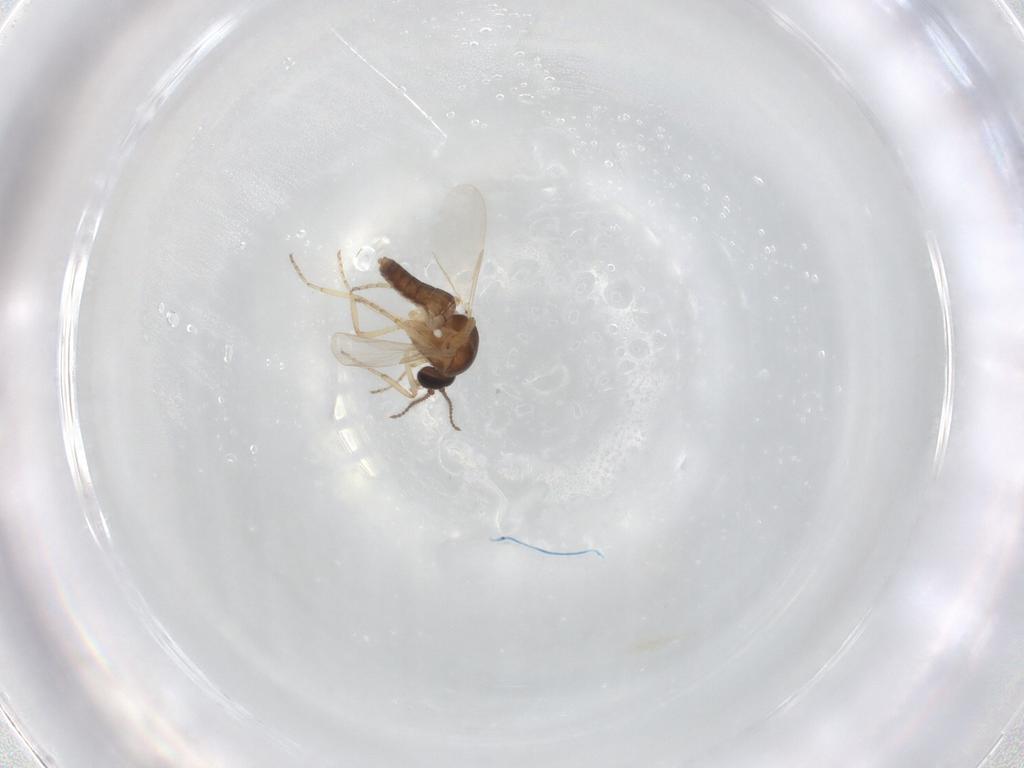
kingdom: Animalia
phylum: Arthropoda
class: Insecta
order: Diptera
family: Ceratopogonidae
